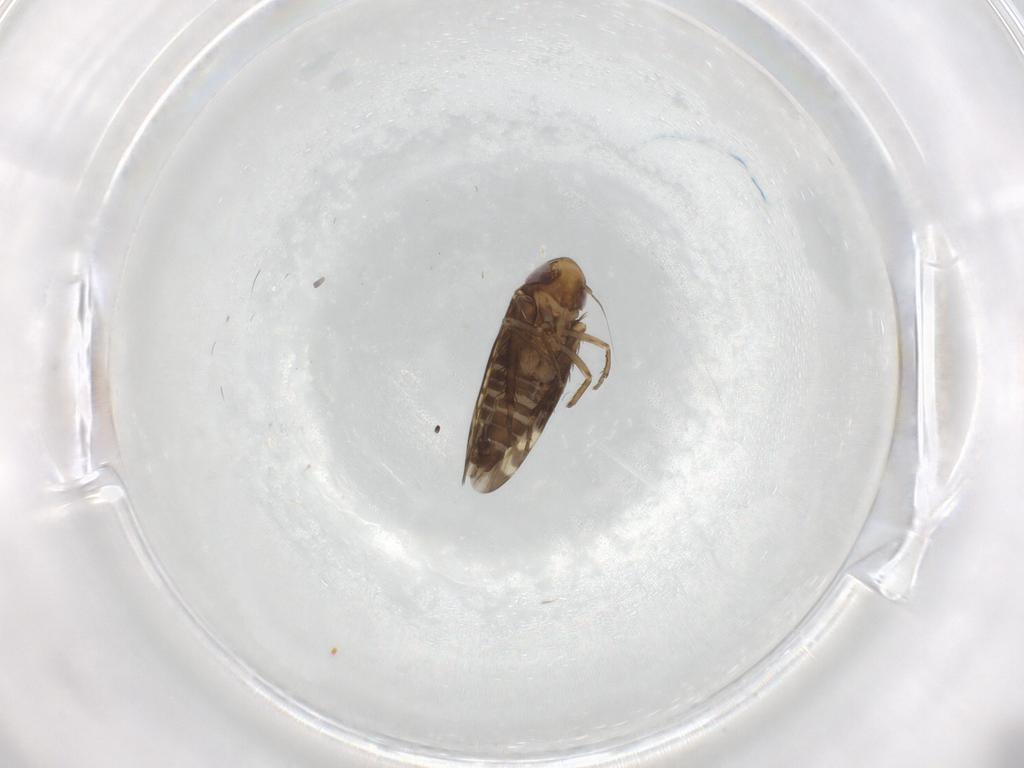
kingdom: Animalia
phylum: Arthropoda
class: Insecta
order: Hemiptera
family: Cicadellidae
